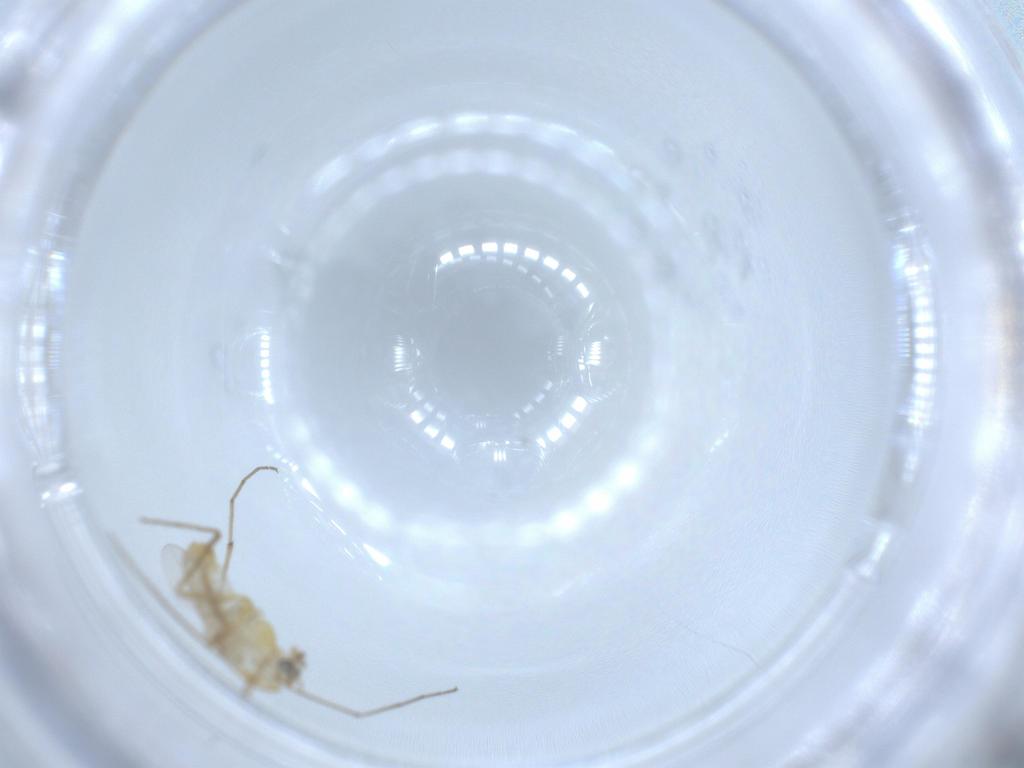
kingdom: Animalia
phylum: Arthropoda
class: Insecta
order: Diptera
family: Chironomidae
